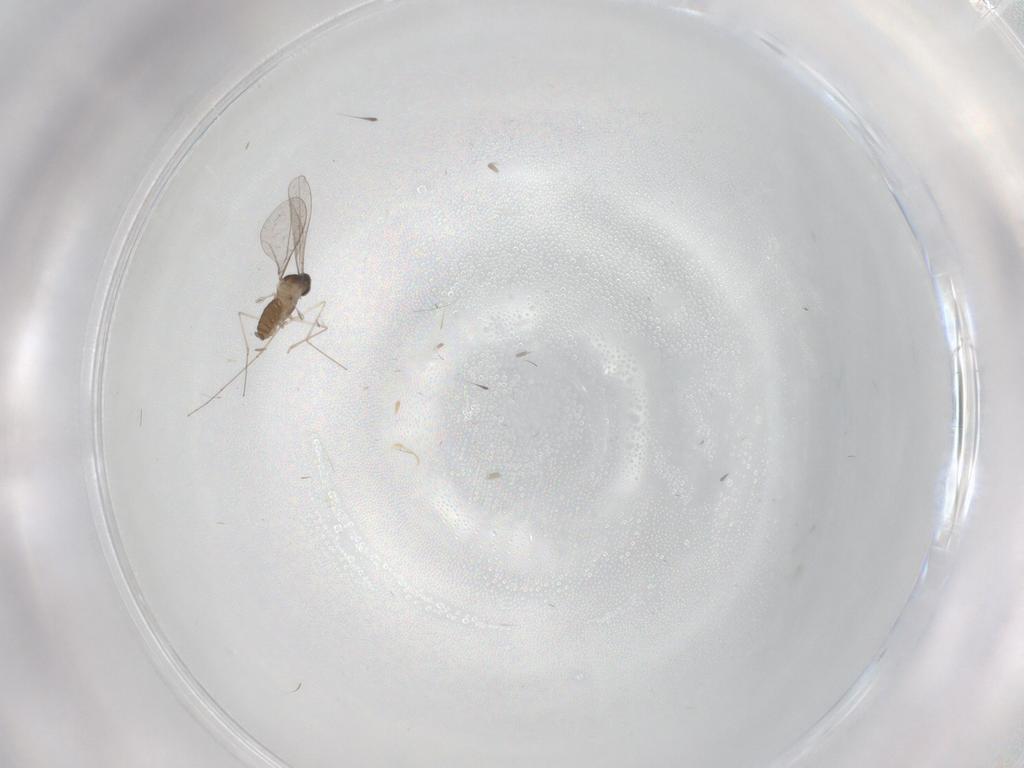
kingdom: Animalia
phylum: Arthropoda
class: Insecta
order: Diptera
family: Cecidomyiidae
